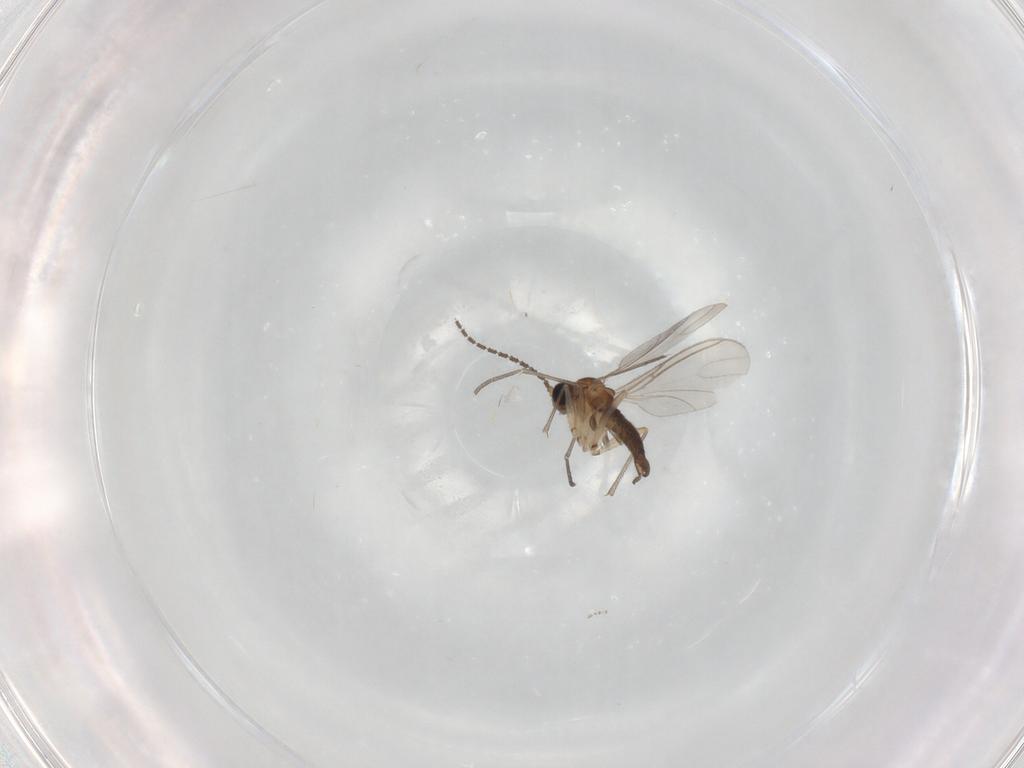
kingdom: Animalia
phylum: Arthropoda
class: Insecta
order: Diptera
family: Sciaridae
